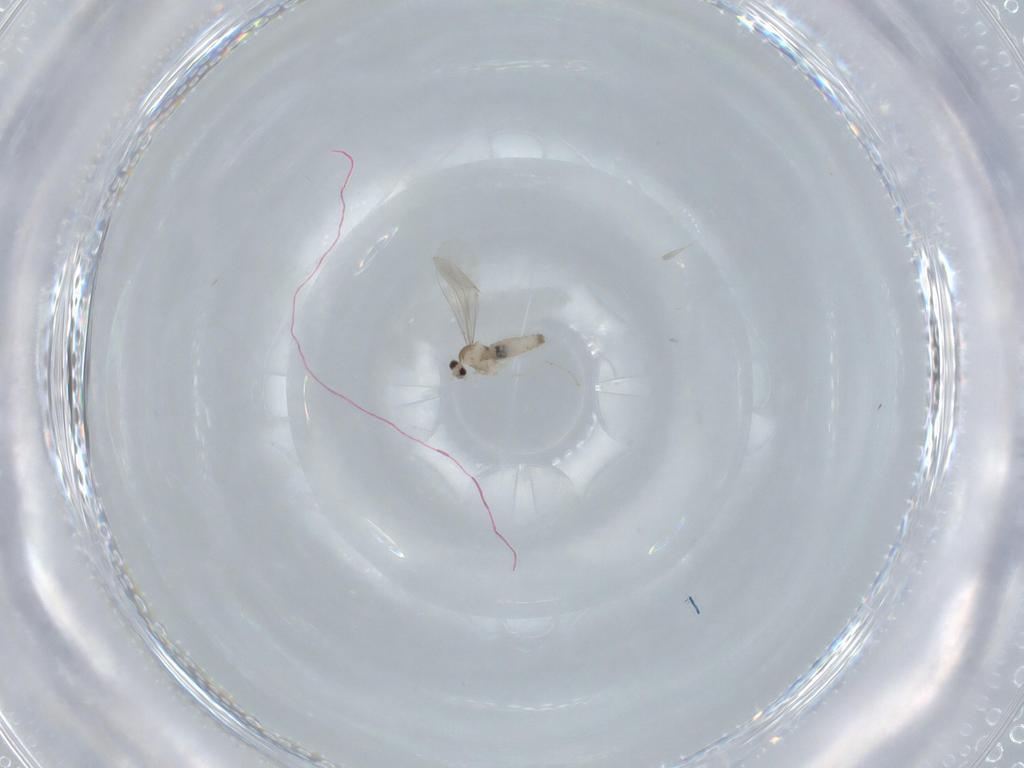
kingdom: Animalia
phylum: Arthropoda
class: Insecta
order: Diptera
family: Cecidomyiidae
